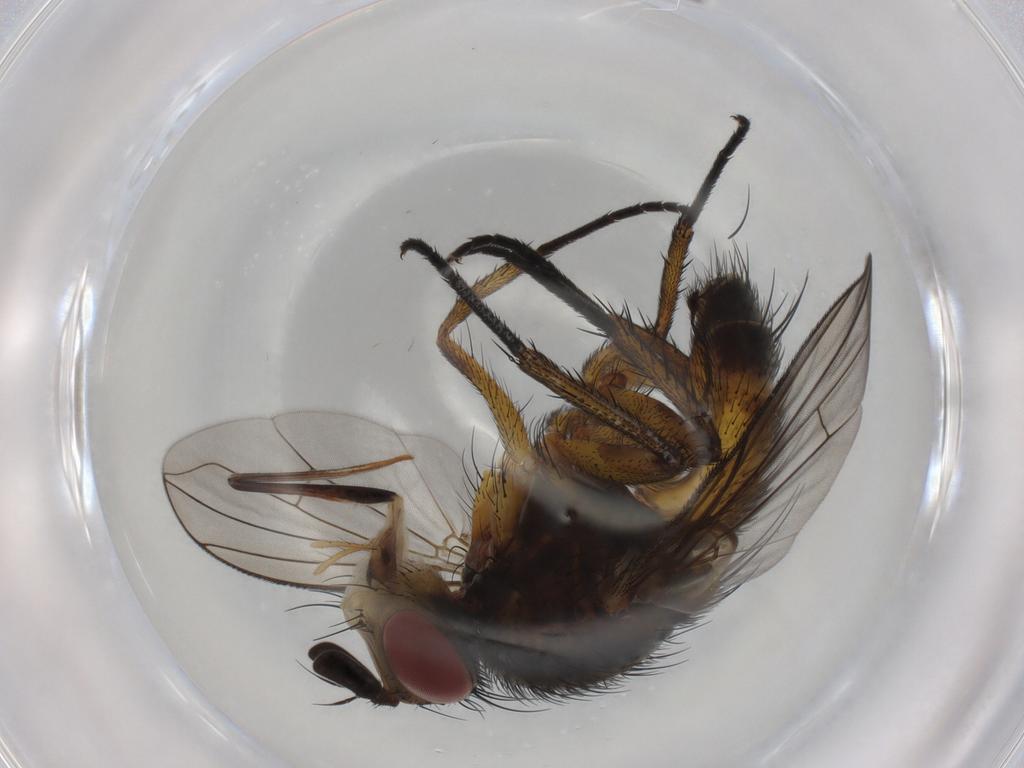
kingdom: Animalia
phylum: Arthropoda
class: Insecta
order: Diptera
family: Tachinidae
